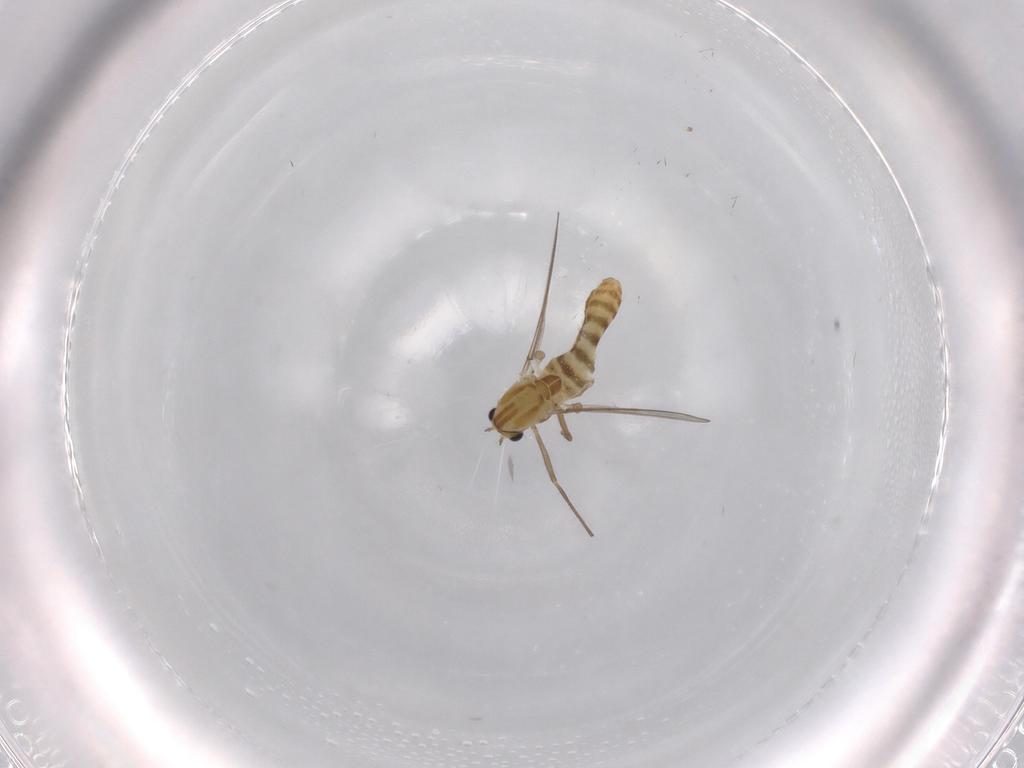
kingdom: Animalia
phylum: Arthropoda
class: Insecta
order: Diptera
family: Chironomidae
